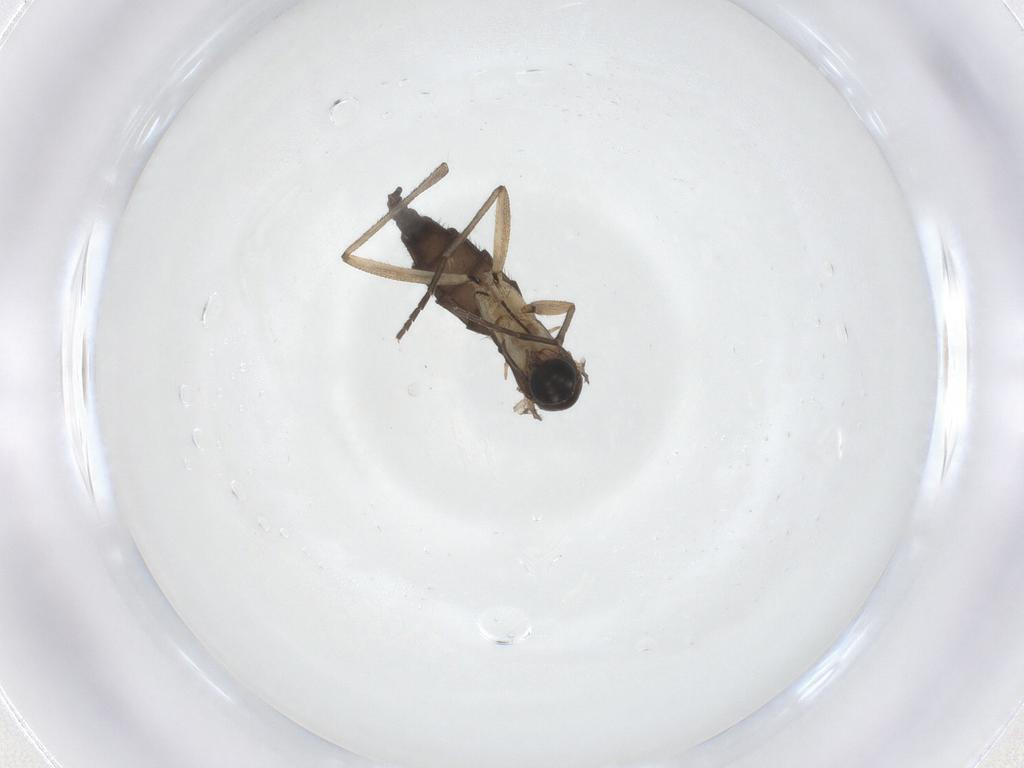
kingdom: Animalia
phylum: Arthropoda
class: Insecta
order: Diptera
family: Sciaridae
